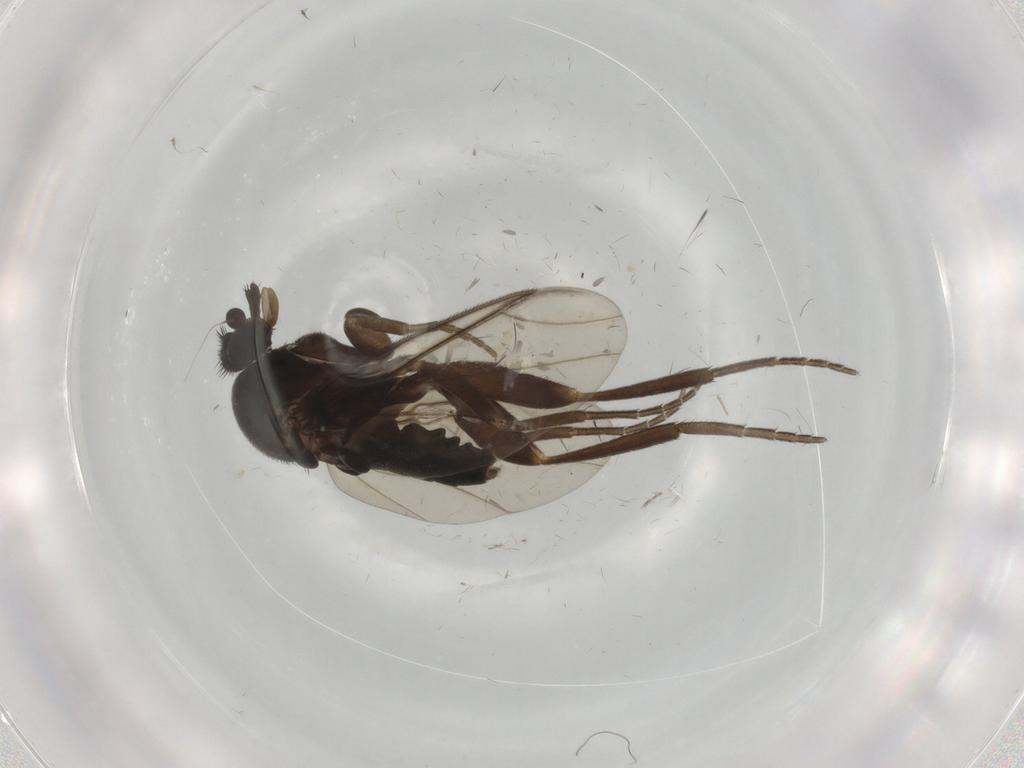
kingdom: Animalia
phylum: Arthropoda
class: Insecta
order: Diptera
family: Phoridae
